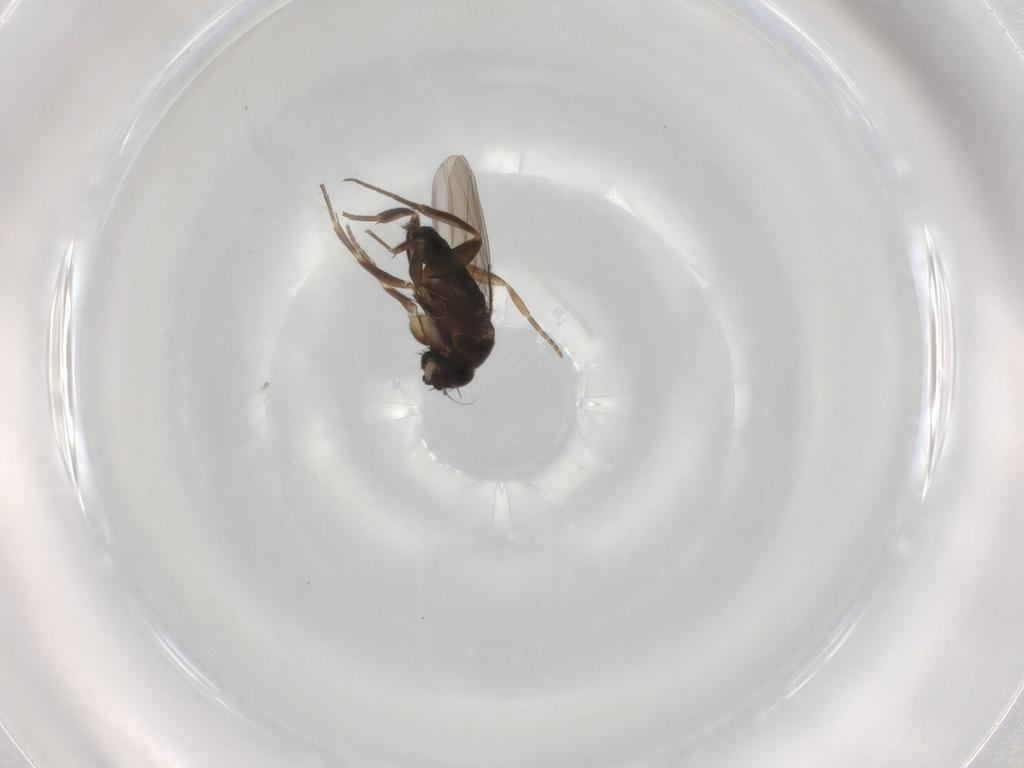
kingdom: Animalia
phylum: Arthropoda
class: Insecta
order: Diptera
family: Phoridae
